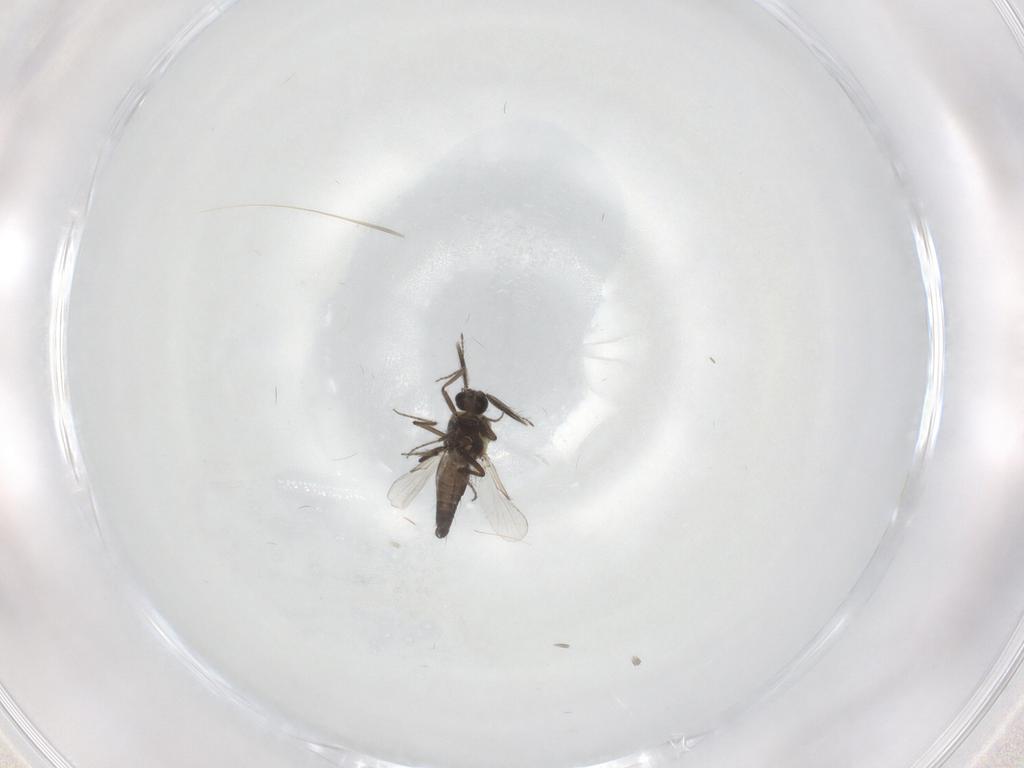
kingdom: Animalia
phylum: Arthropoda
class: Insecta
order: Diptera
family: Ceratopogonidae
